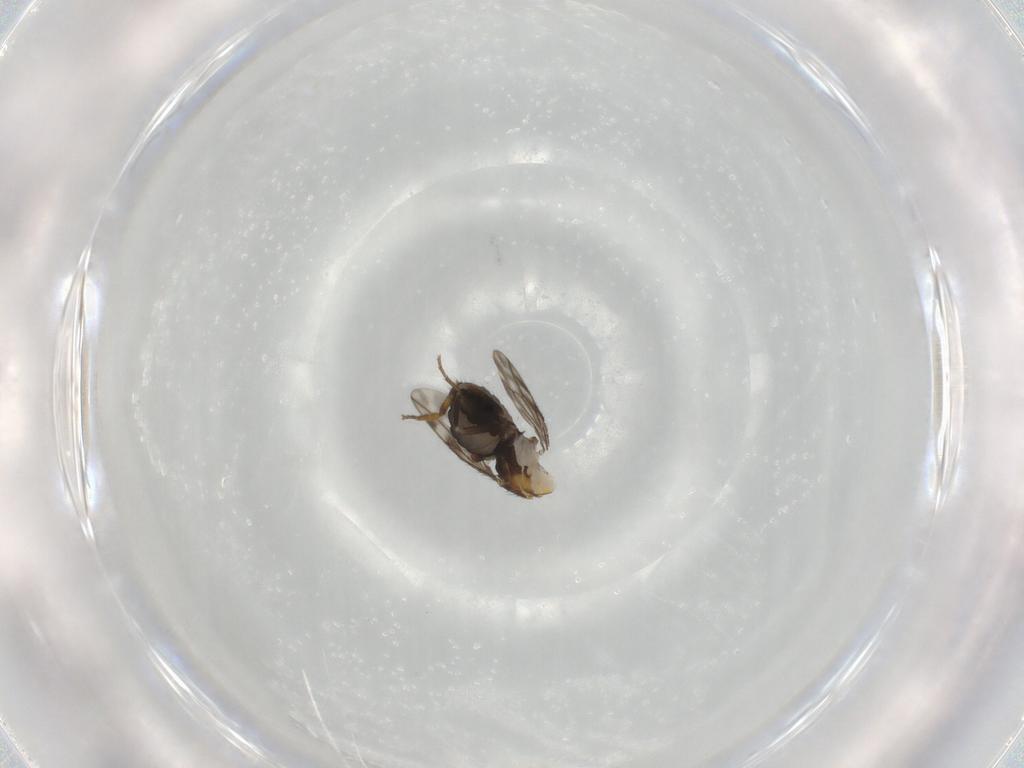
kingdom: Animalia
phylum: Arthropoda
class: Insecta
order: Diptera
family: Sphaeroceridae
